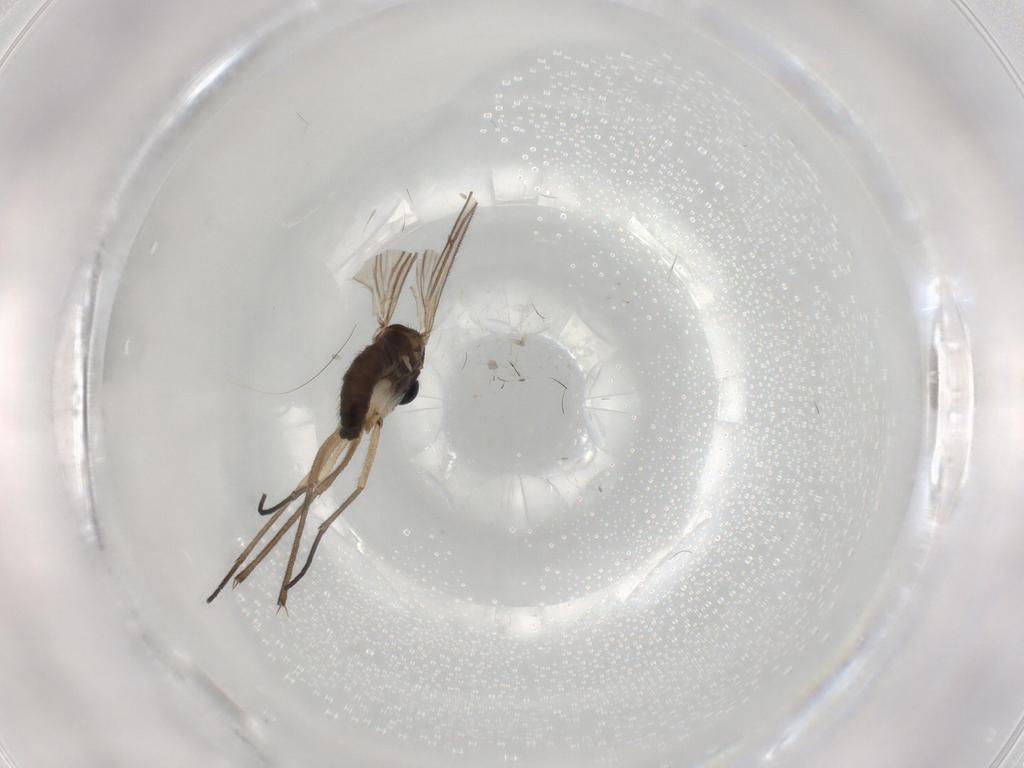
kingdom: Animalia
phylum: Arthropoda
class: Insecta
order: Diptera
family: Sciaridae
